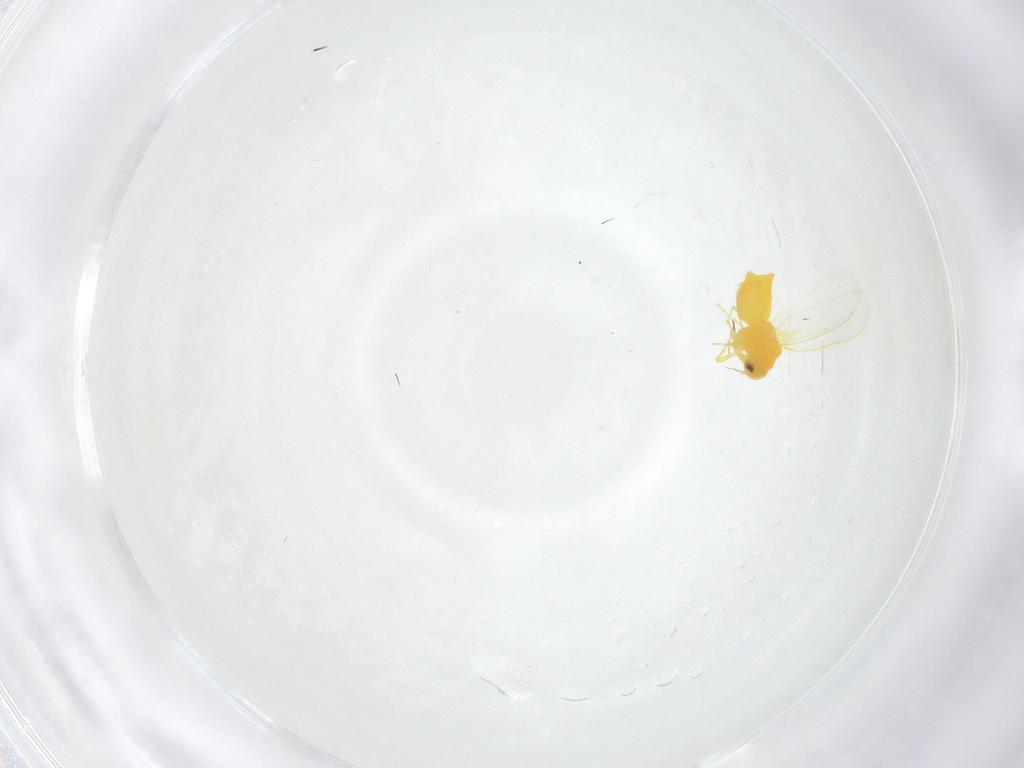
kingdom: Animalia
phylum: Arthropoda
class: Insecta
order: Hemiptera
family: Aleyrodidae
